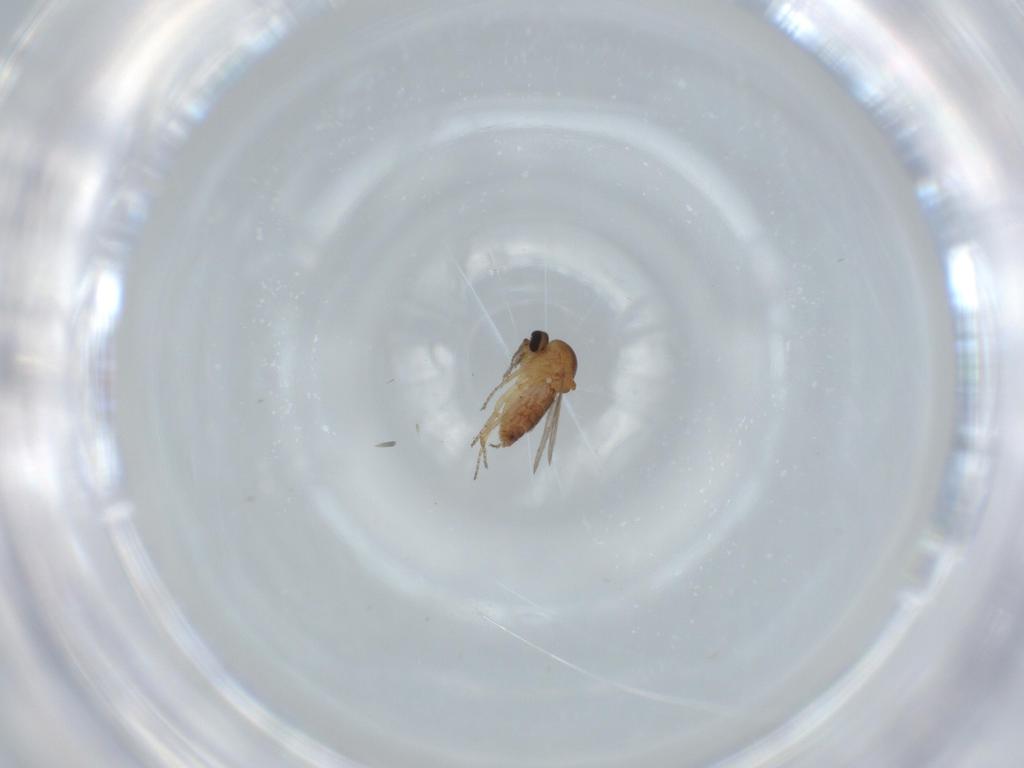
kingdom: Animalia
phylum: Arthropoda
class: Insecta
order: Diptera
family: Ceratopogonidae
